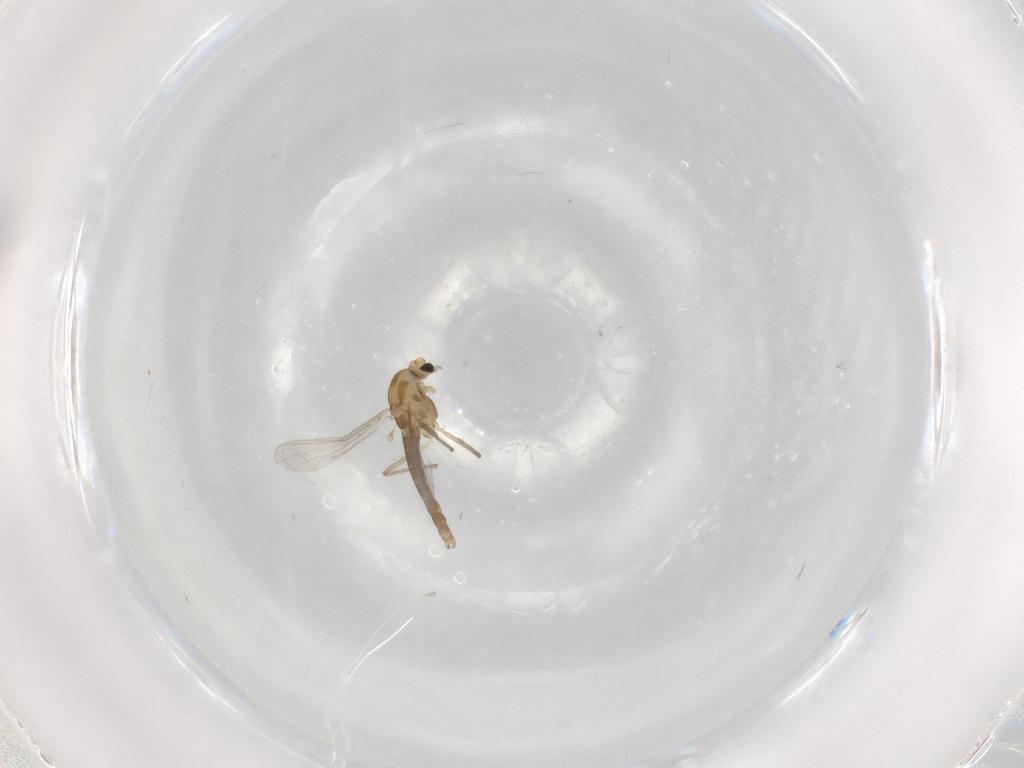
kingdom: Animalia
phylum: Arthropoda
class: Insecta
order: Diptera
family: Chironomidae
